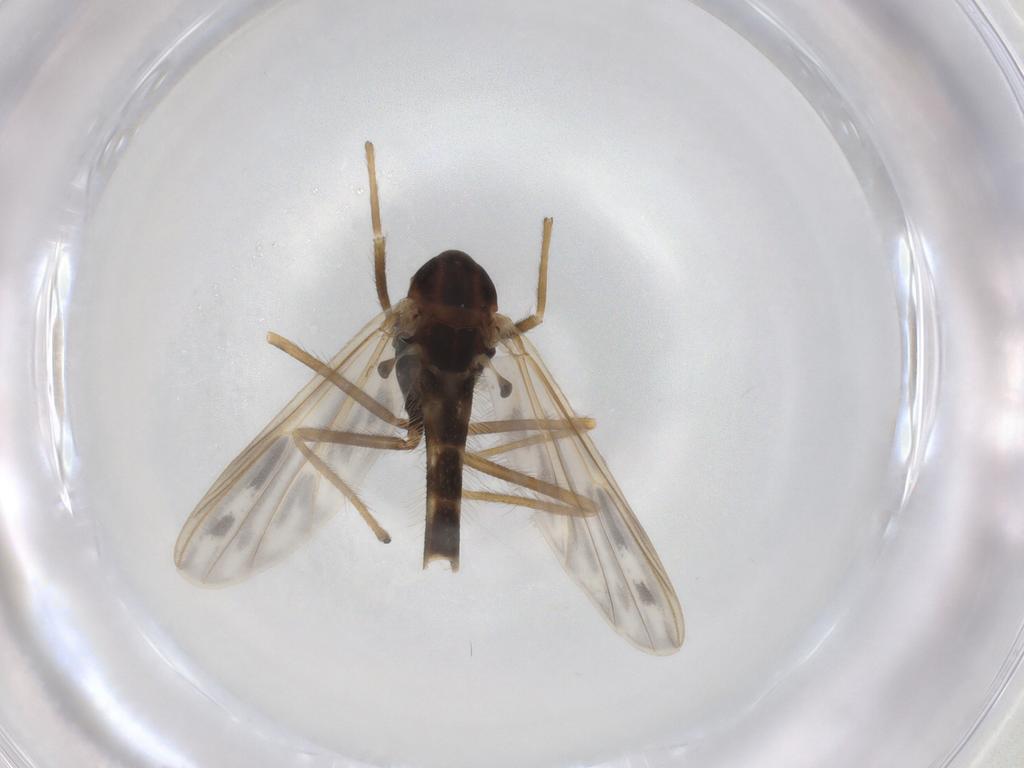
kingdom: Animalia
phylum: Arthropoda
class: Insecta
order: Diptera
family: Chironomidae
